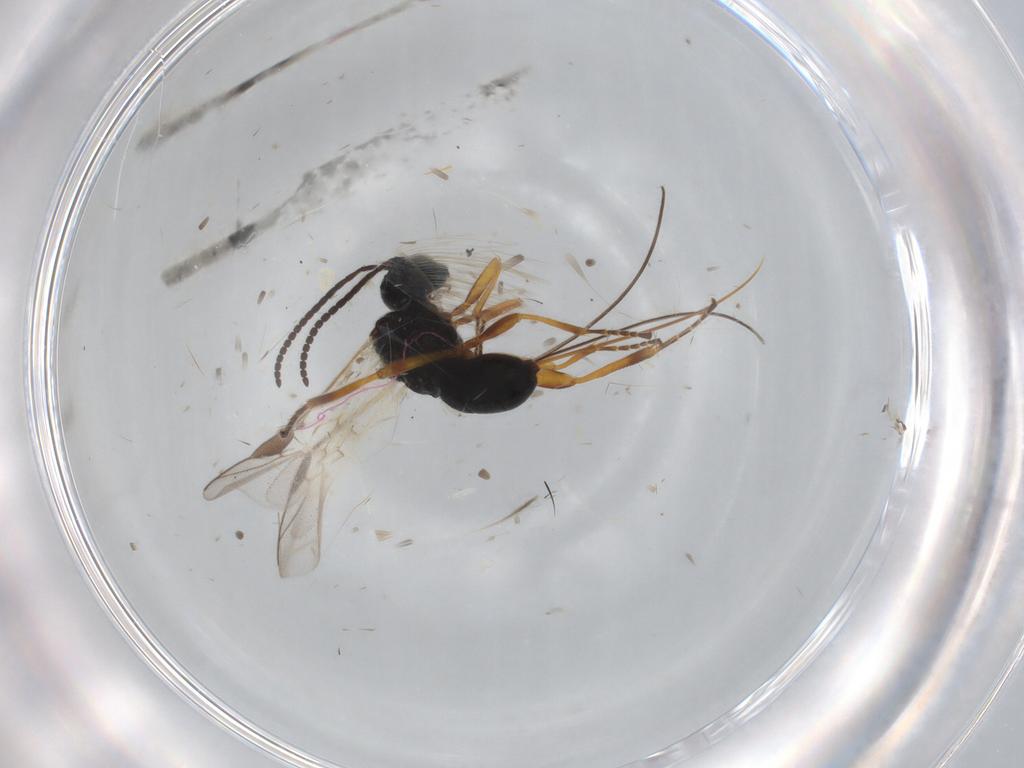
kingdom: Animalia
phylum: Arthropoda
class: Insecta
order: Hymenoptera
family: Braconidae
